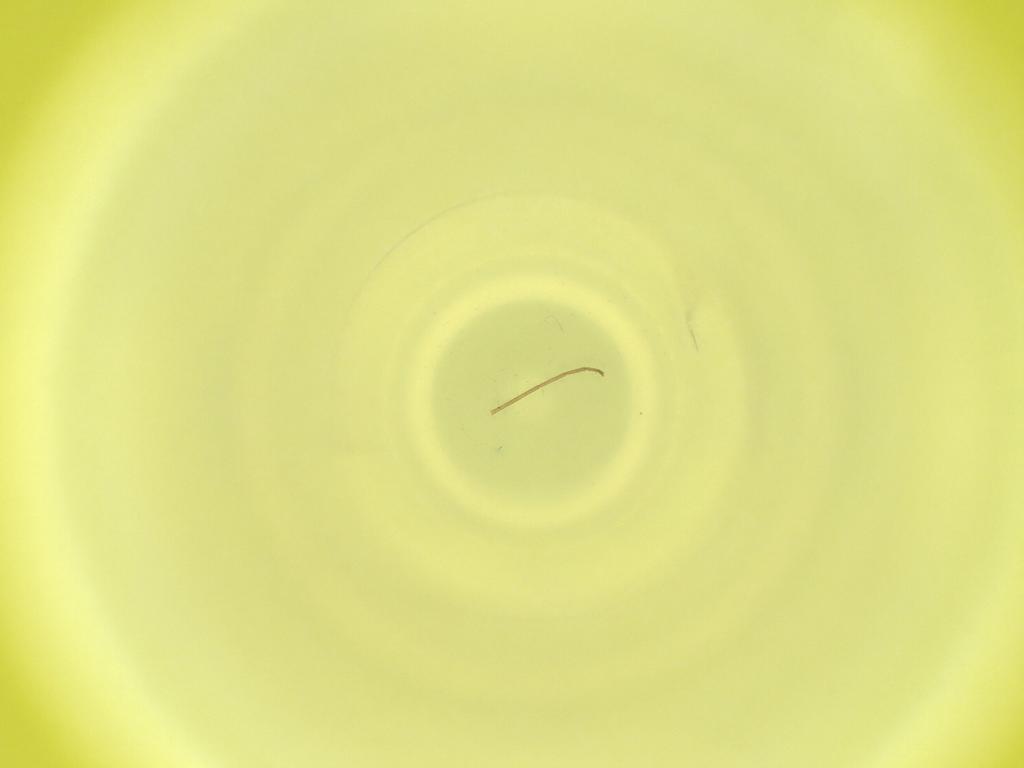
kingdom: Animalia
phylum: Arthropoda
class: Insecta
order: Diptera
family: Cecidomyiidae
